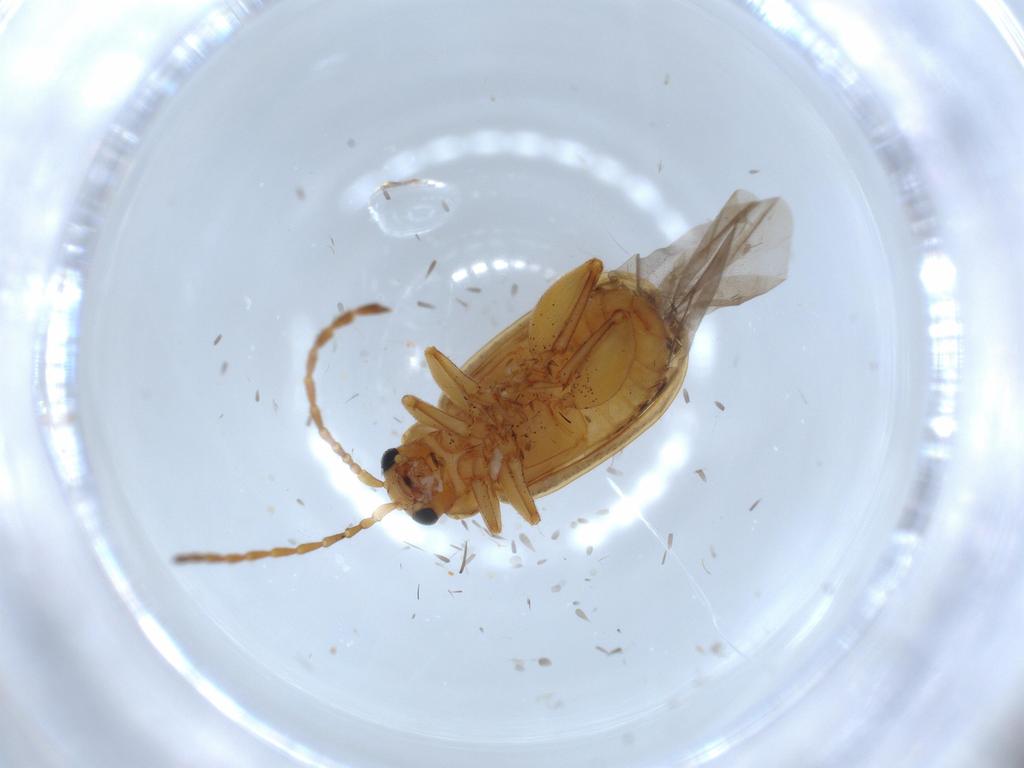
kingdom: Animalia
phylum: Arthropoda
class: Insecta
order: Coleoptera
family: Chrysomelidae
